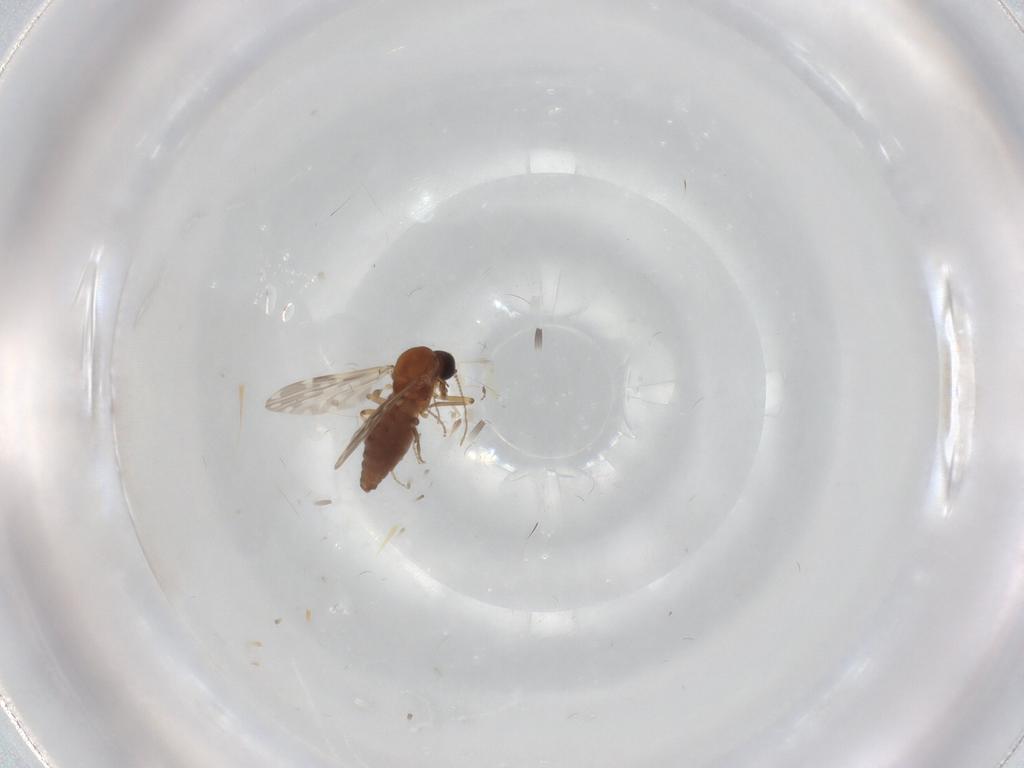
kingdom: Animalia
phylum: Arthropoda
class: Insecta
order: Diptera
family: Ceratopogonidae
